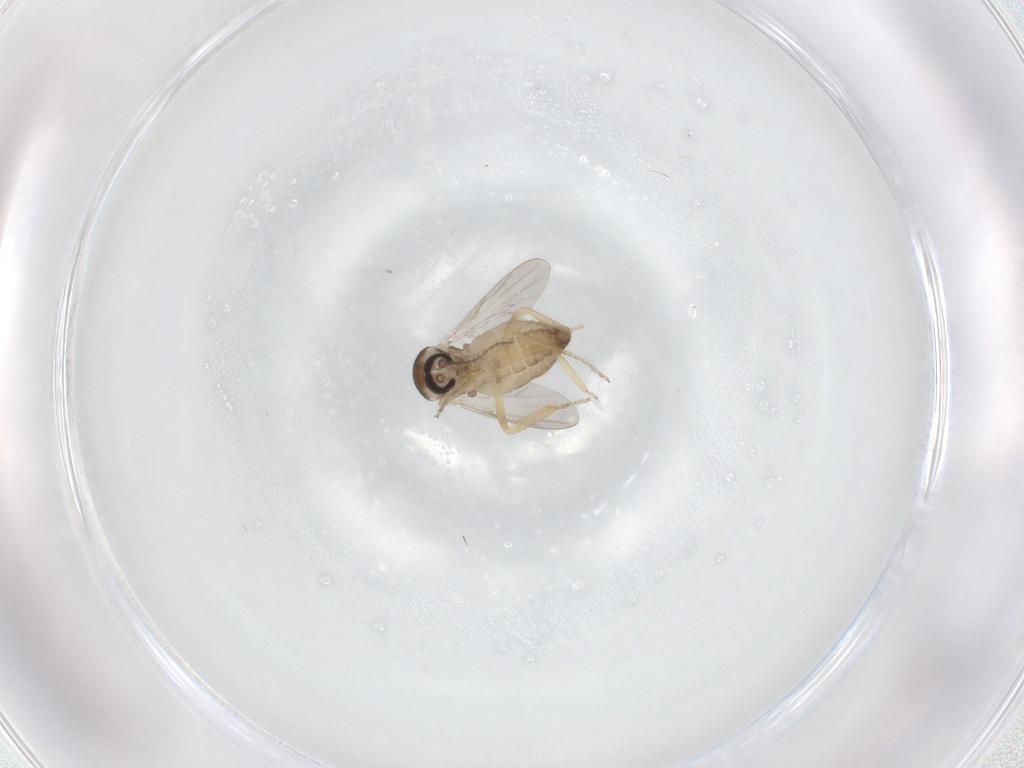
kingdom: Animalia
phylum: Arthropoda
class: Insecta
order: Diptera
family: Ceratopogonidae
